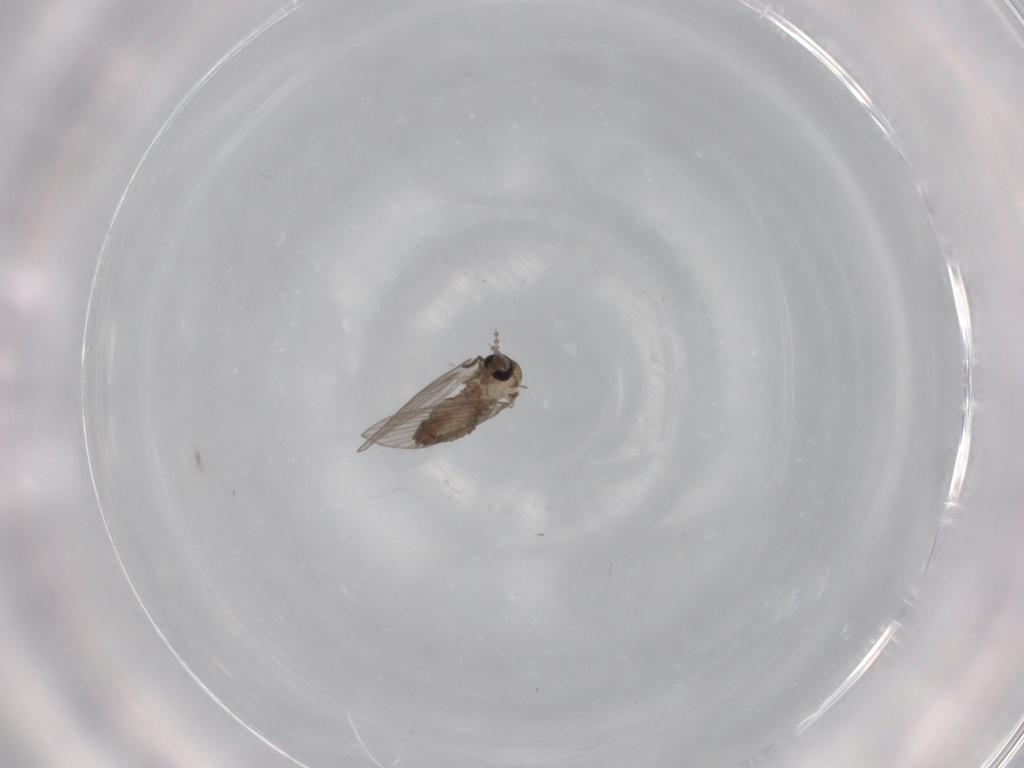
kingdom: Animalia
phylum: Arthropoda
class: Insecta
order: Diptera
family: Psychodidae
